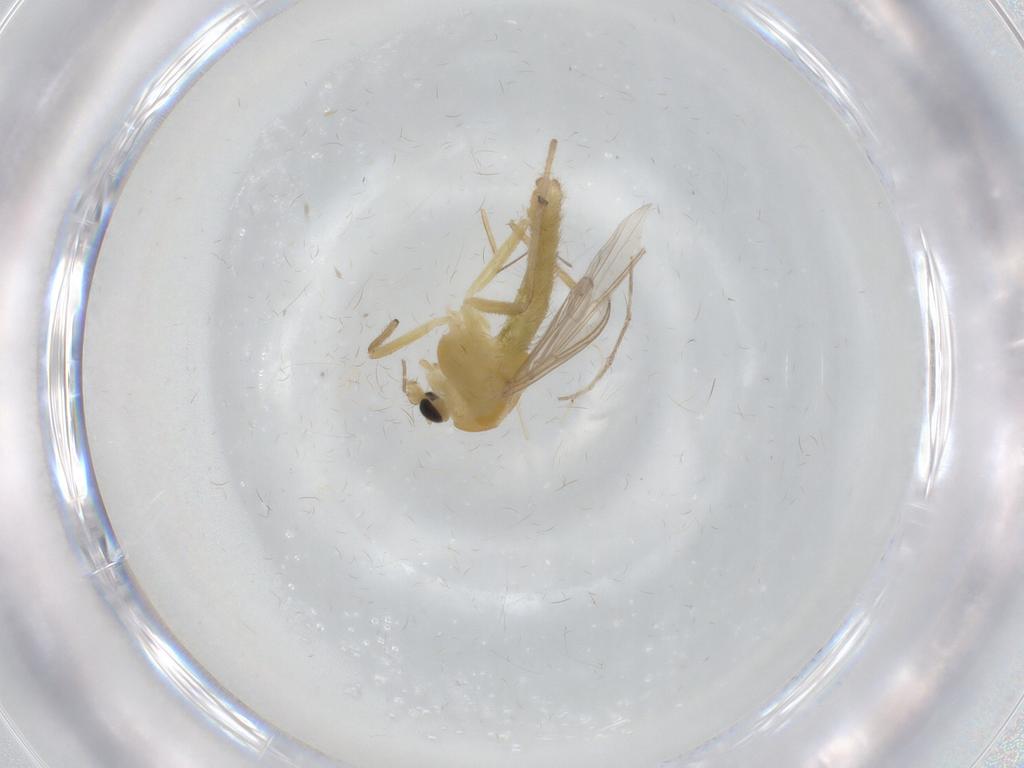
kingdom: Animalia
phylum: Arthropoda
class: Insecta
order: Diptera
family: Chironomidae
